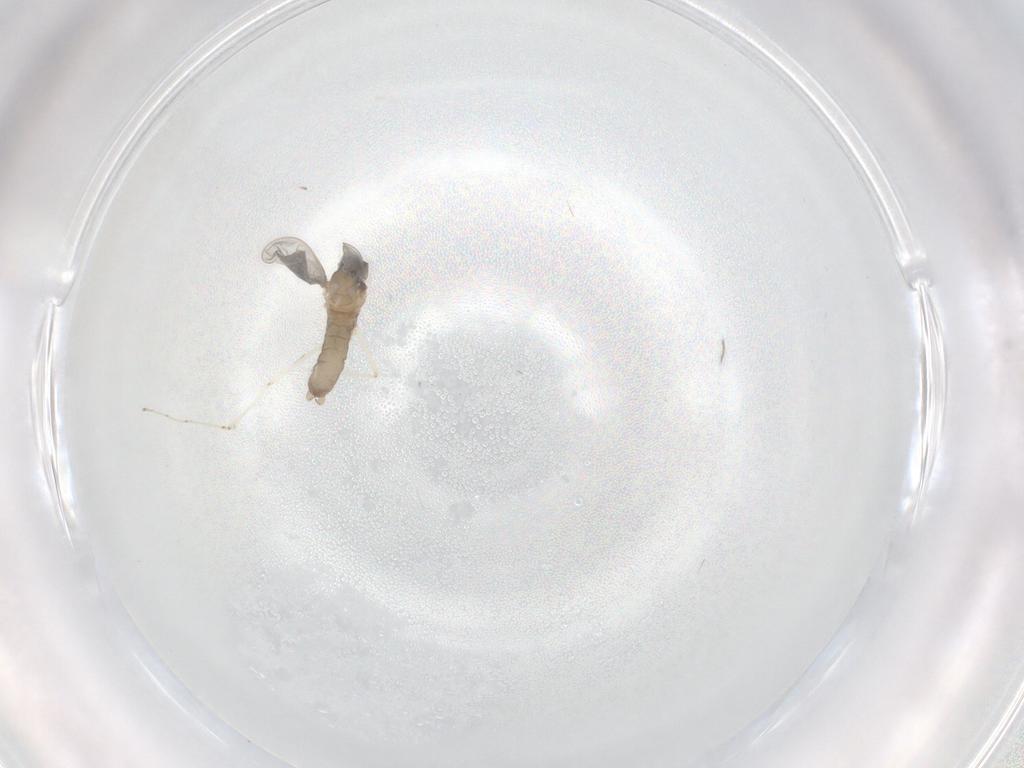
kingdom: Animalia
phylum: Arthropoda
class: Insecta
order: Diptera
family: Cecidomyiidae
